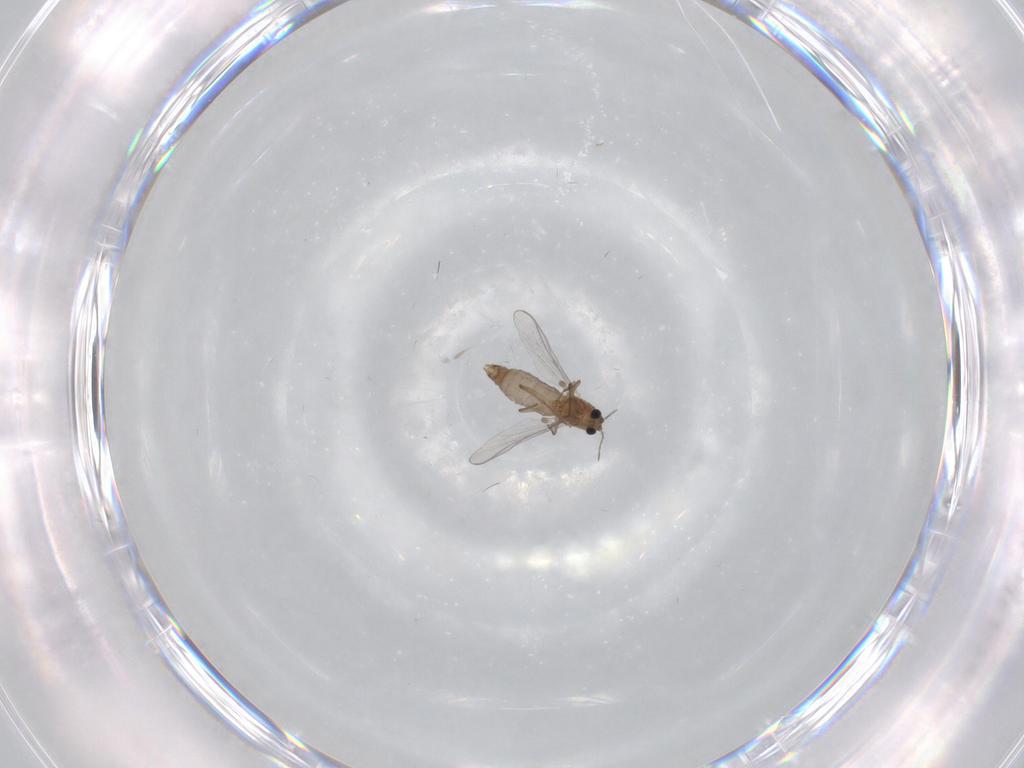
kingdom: Animalia
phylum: Arthropoda
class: Insecta
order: Diptera
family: Chironomidae
